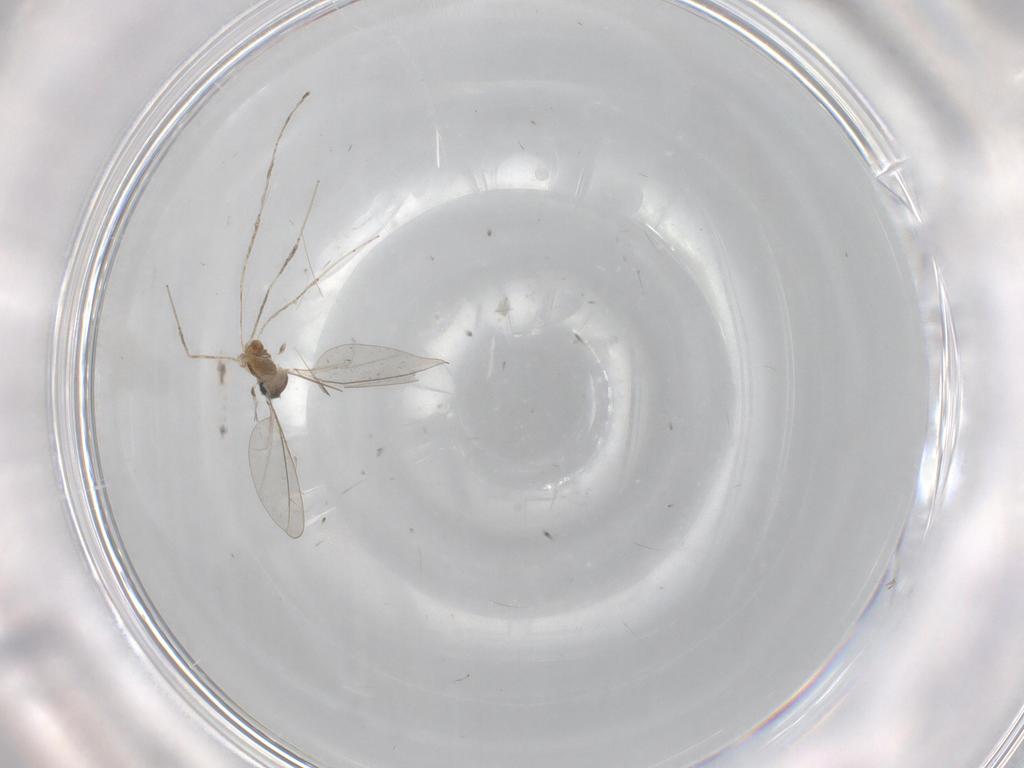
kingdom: Animalia
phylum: Arthropoda
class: Insecta
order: Diptera
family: Cecidomyiidae
